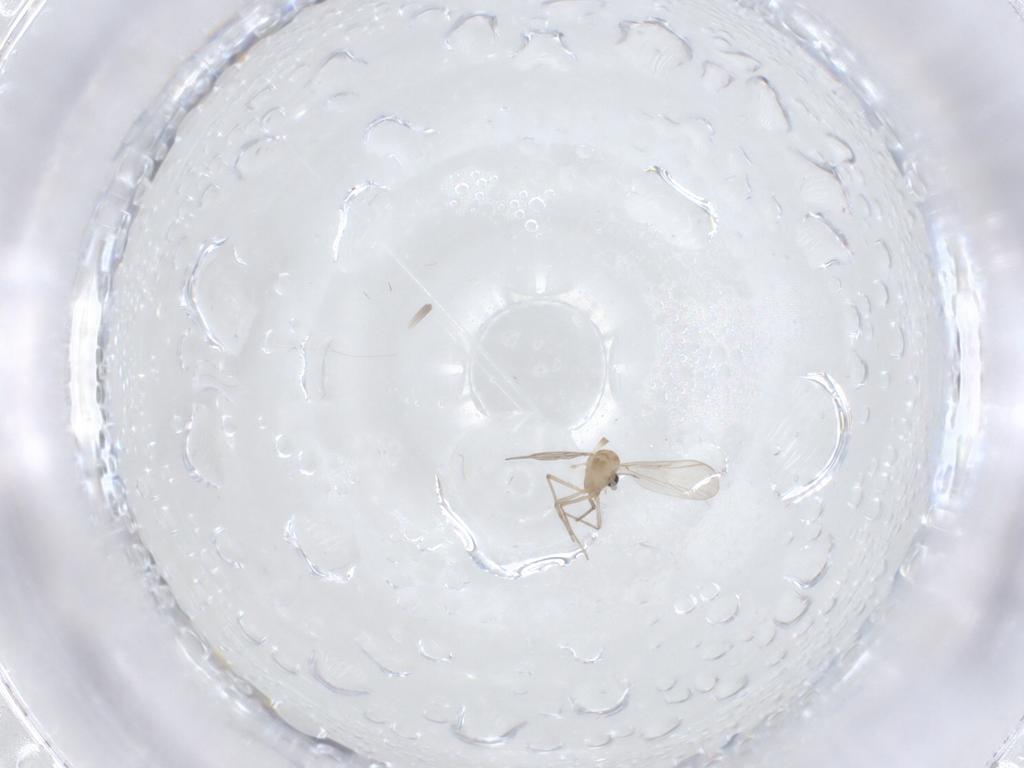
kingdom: Animalia
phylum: Arthropoda
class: Insecta
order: Diptera
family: Chironomidae
